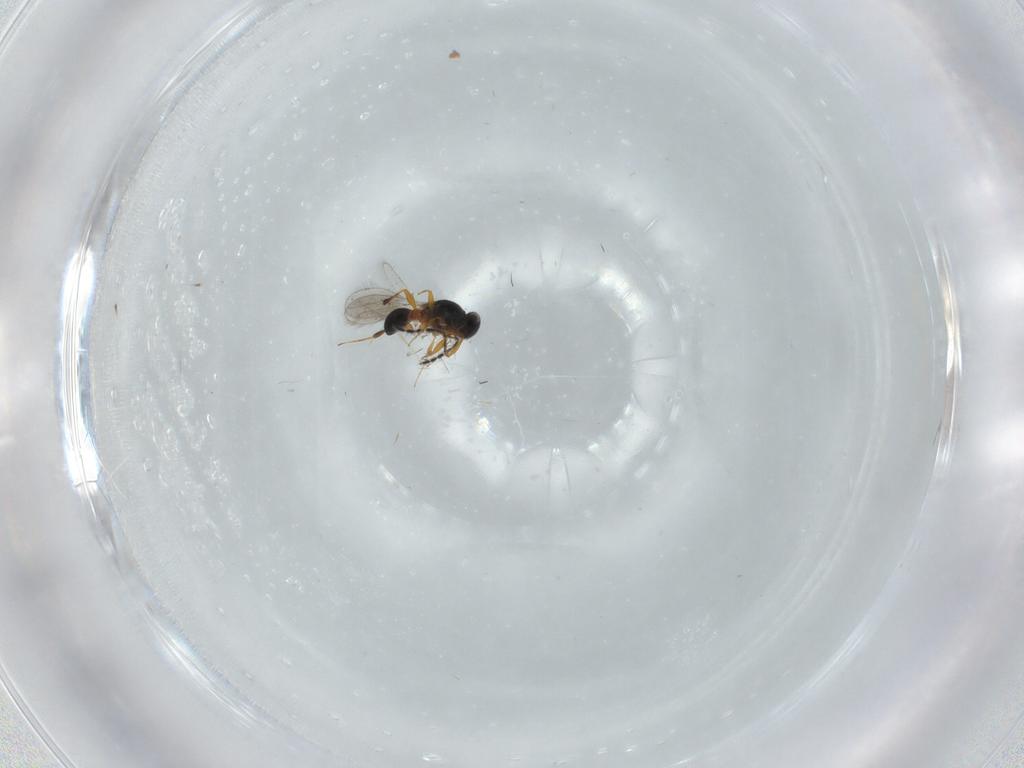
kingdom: Animalia
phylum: Arthropoda
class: Insecta
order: Hymenoptera
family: Platygastridae
